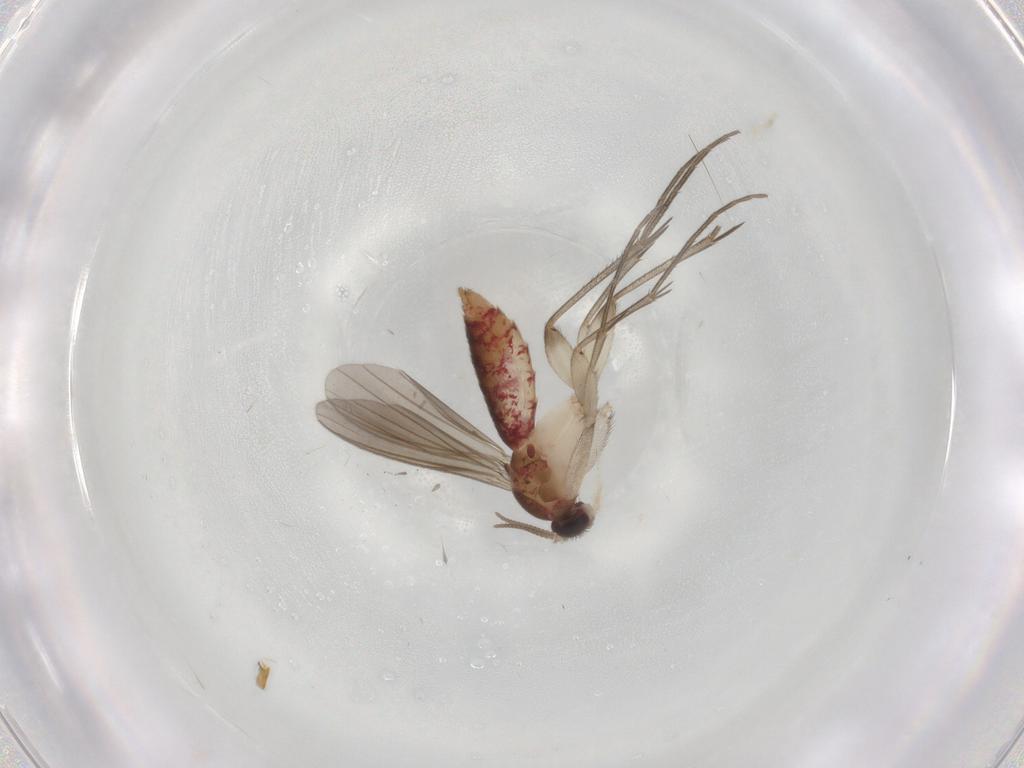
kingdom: Animalia
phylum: Arthropoda
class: Insecta
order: Diptera
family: Mycetophilidae
